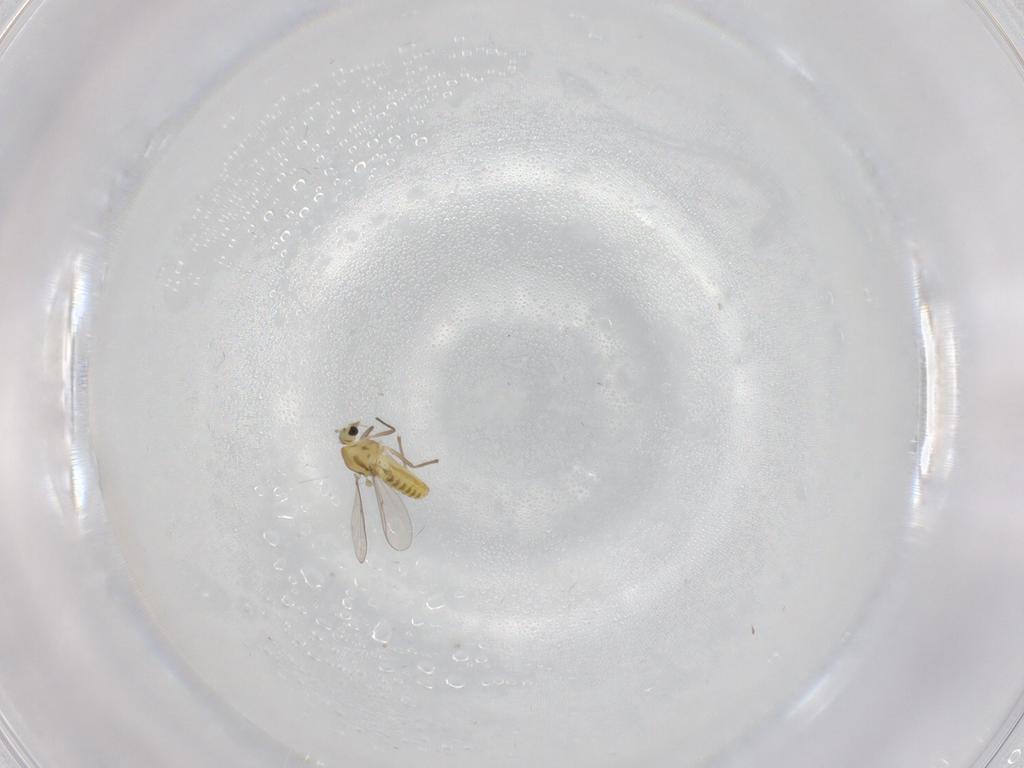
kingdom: Animalia
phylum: Arthropoda
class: Insecta
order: Diptera
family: Chironomidae
